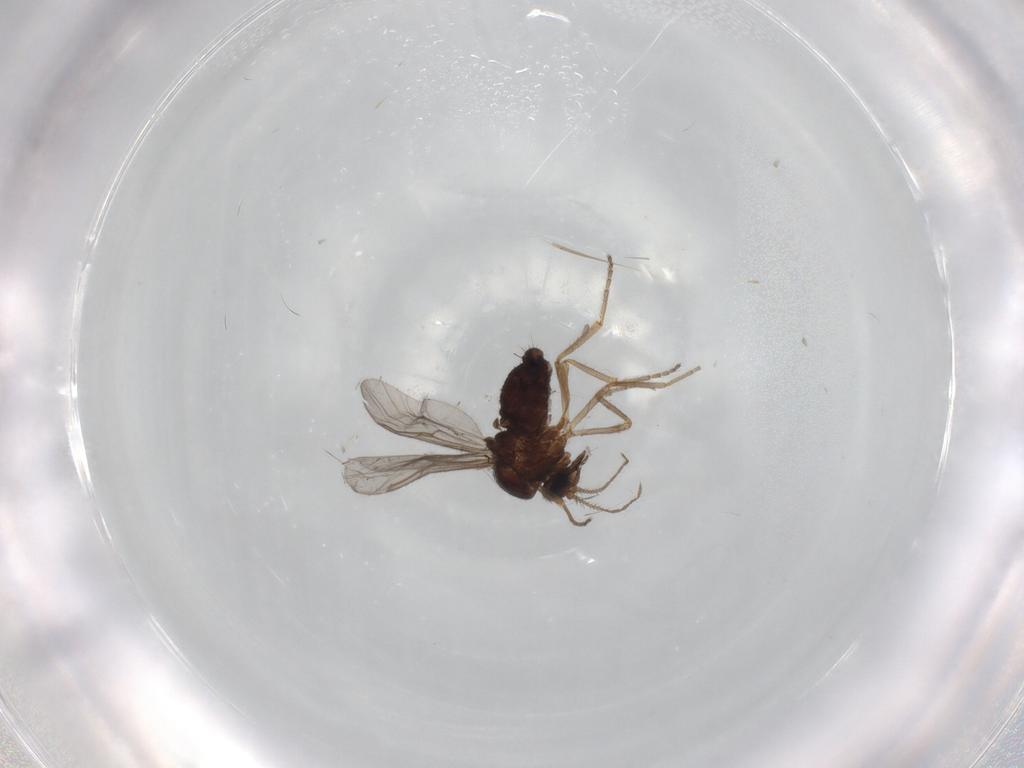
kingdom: Animalia
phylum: Arthropoda
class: Insecta
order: Diptera
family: Ceratopogonidae
